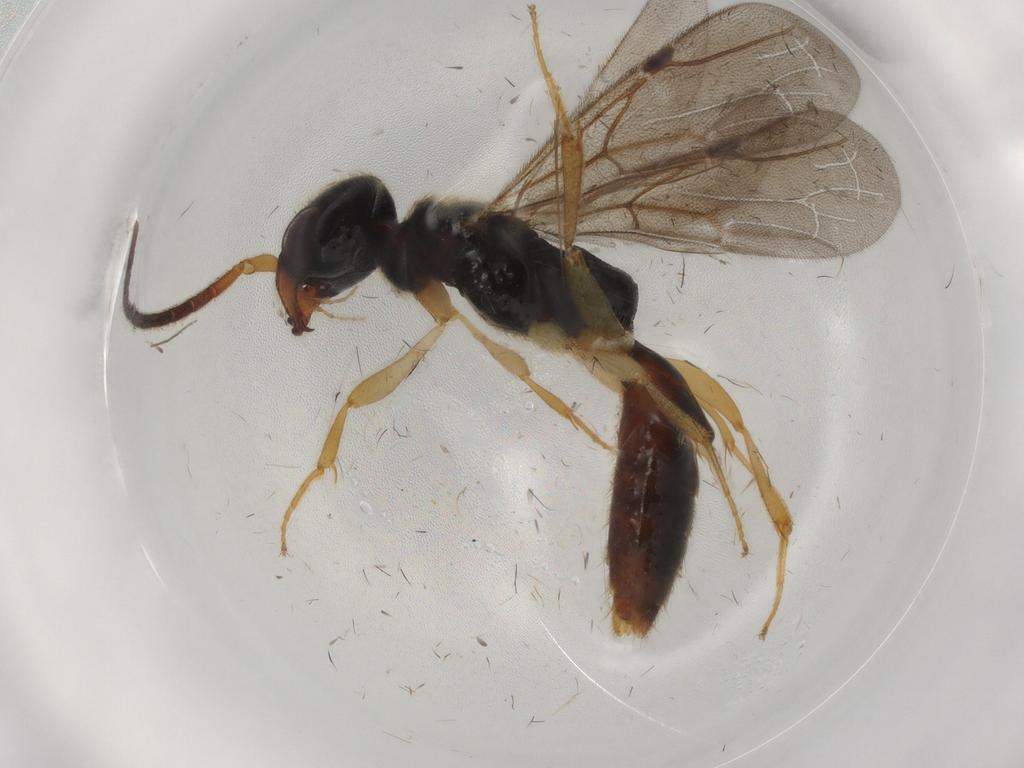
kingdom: Animalia
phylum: Arthropoda
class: Insecta
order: Hymenoptera
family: Bethylidae
